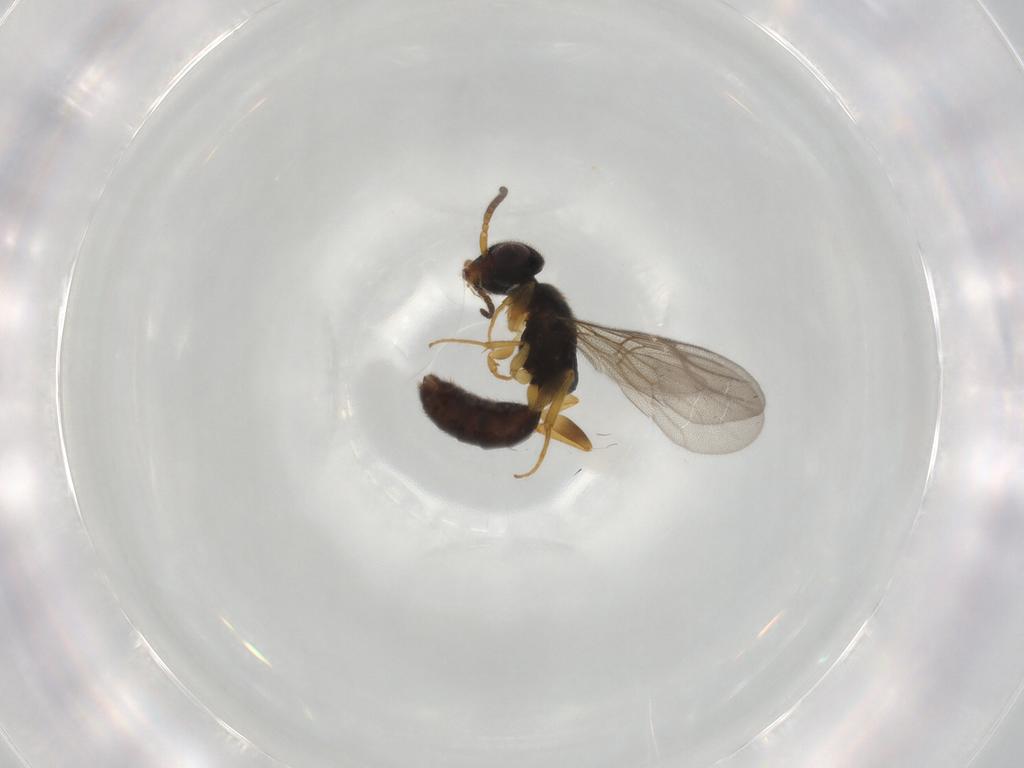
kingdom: Animalia
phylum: Arthropoda
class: Insecta
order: Hymenoptera
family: Bethylidae
